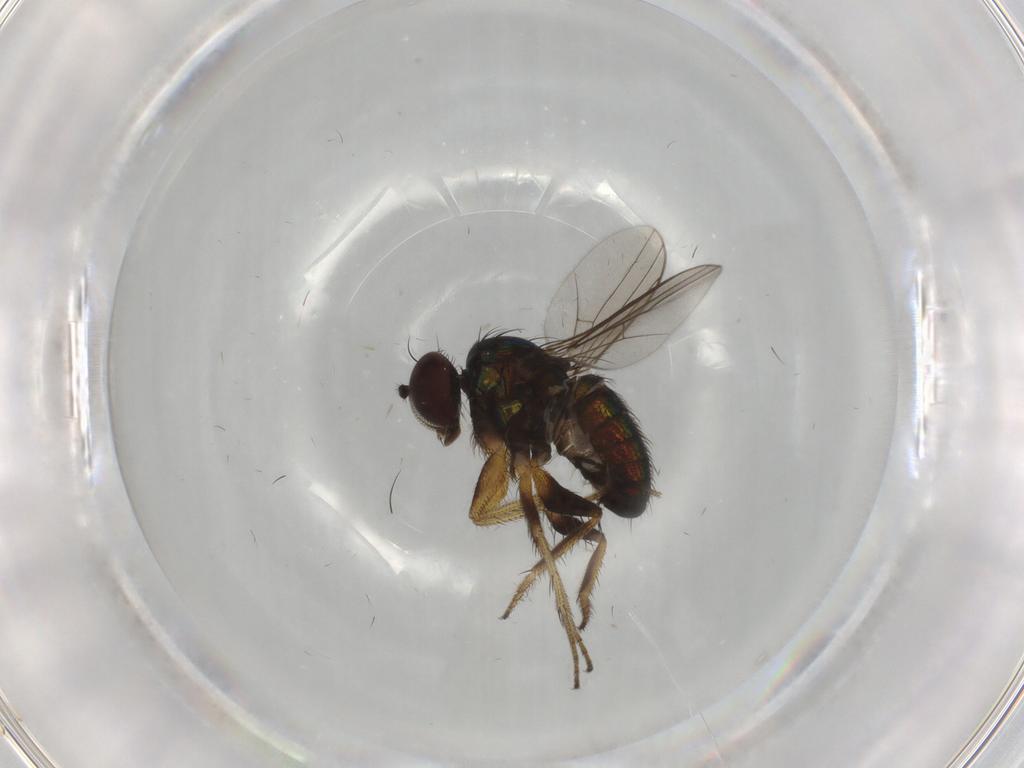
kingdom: Animalia
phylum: Arthropoda
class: Insecta
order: Diptera
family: Dolichopodidae
